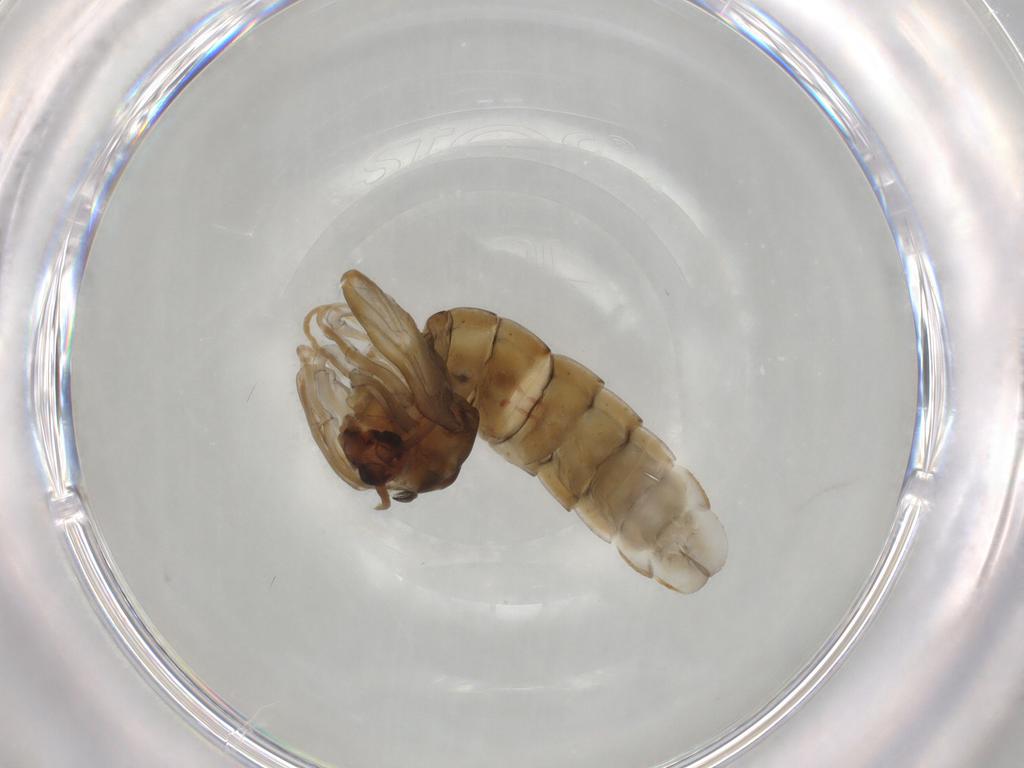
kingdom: Animalia
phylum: Arthropoda
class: Insecta
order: Diptera
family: Chironomidae
